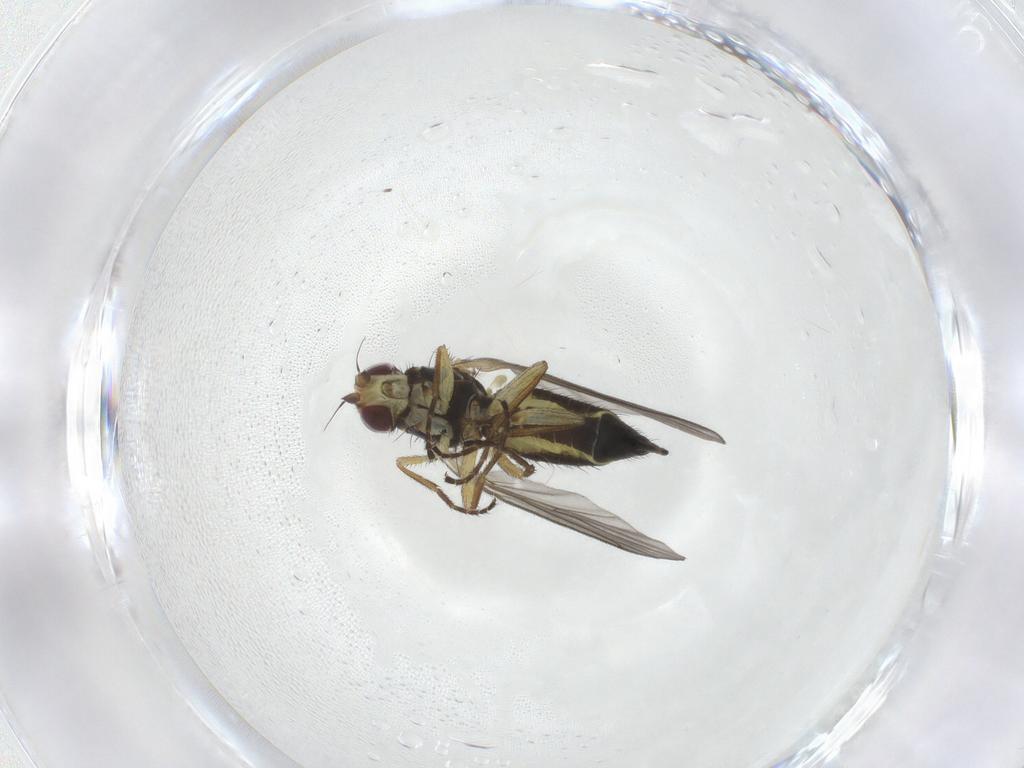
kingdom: Animalia
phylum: Arthropoda
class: Insecta
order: Diptera
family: Agromyzidae
